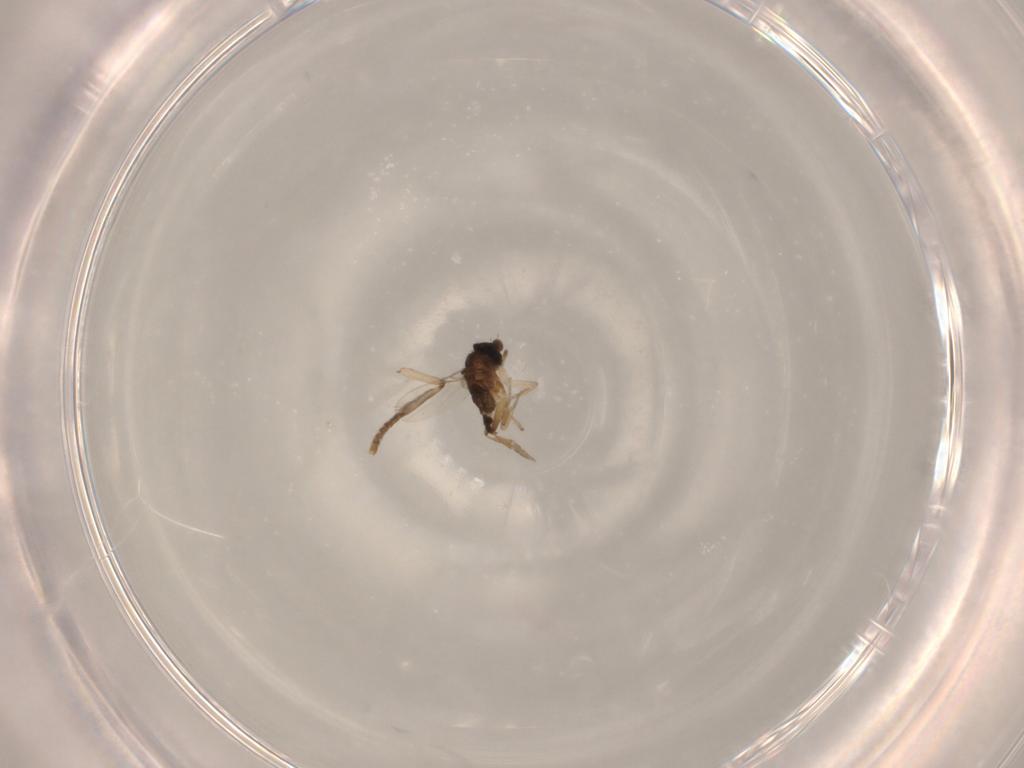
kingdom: Animalia
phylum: Arthropoda
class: Insecta
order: Diptera
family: Psychodidae
